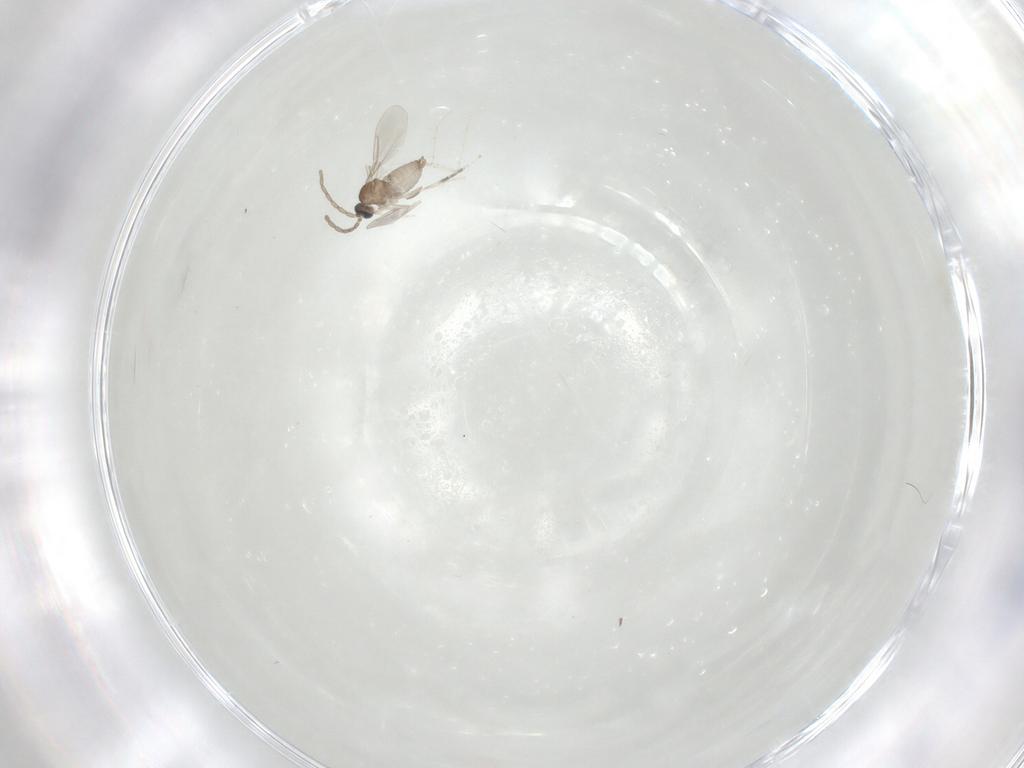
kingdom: Animalia
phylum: Arthropoda
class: Insecta
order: Diptera
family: Cecidomyiidae
